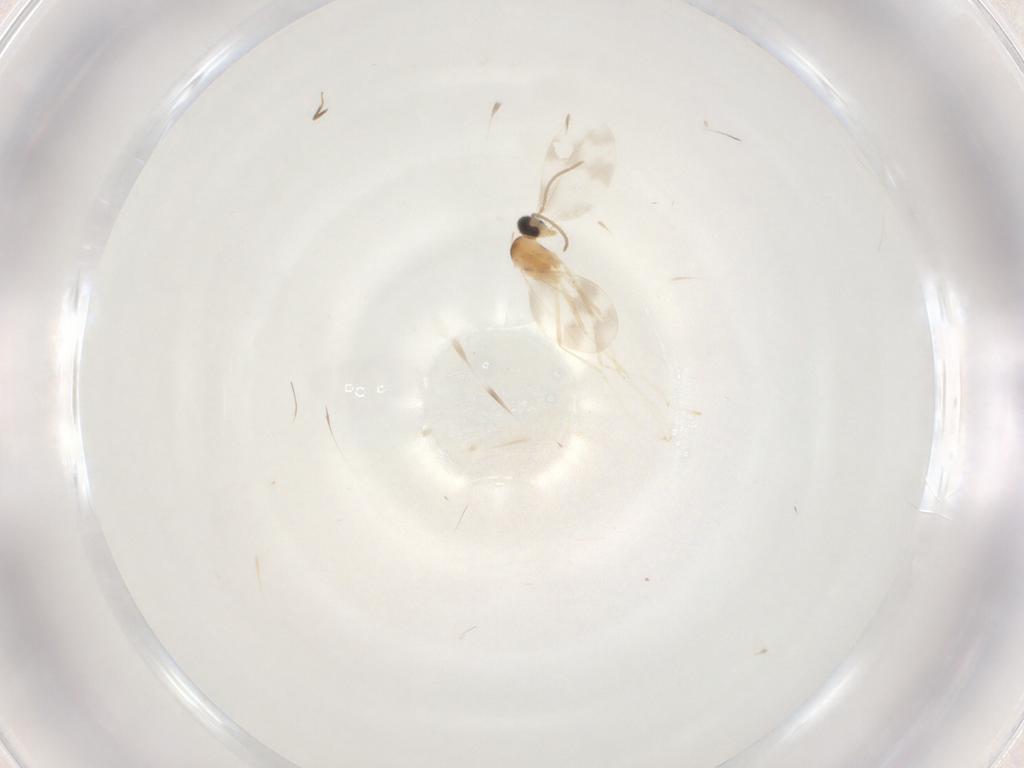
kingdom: Animalia
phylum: Arthropoda
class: Insecta
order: Diptera
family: Cecidomyiidae
